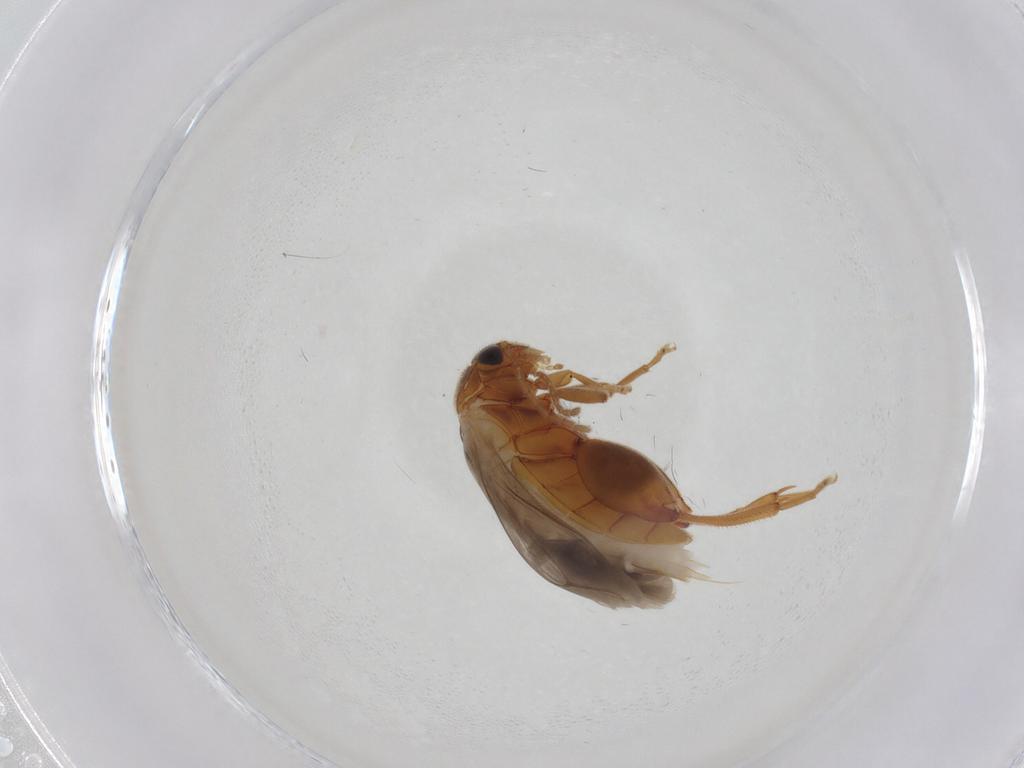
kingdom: Animalia
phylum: Arthropoda
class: Insecta
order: Coleoptera
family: Scirtidae
